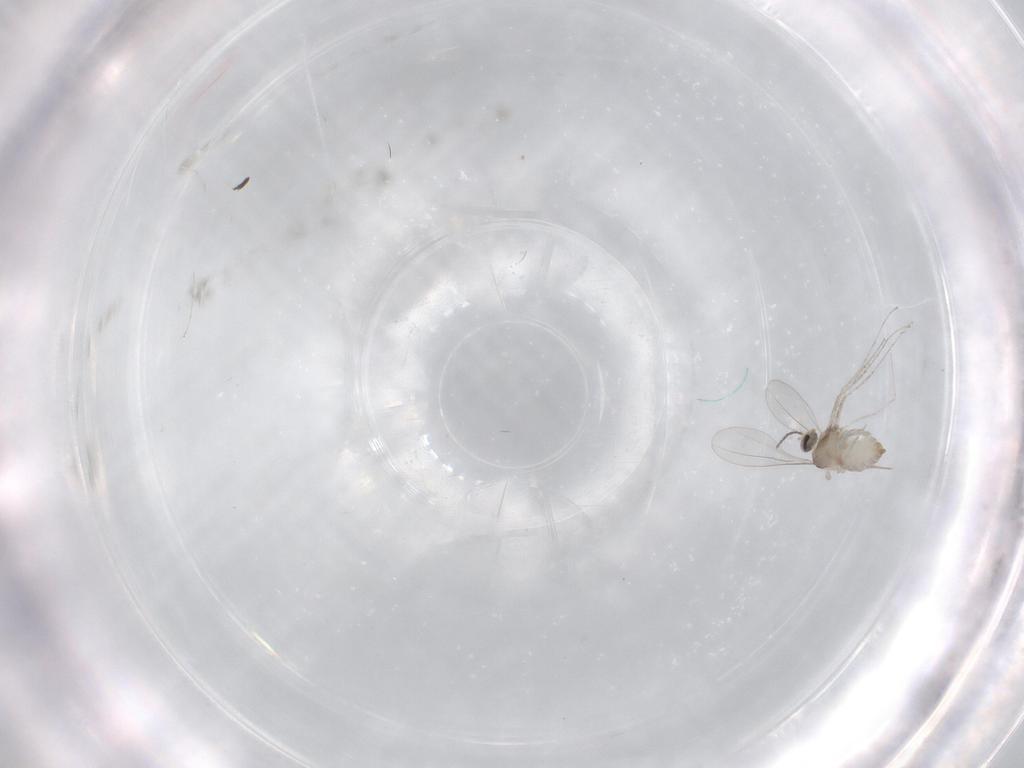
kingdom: Animalia
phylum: Arthropoda
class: Insecta
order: Diptera
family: Cecidomyiidae
